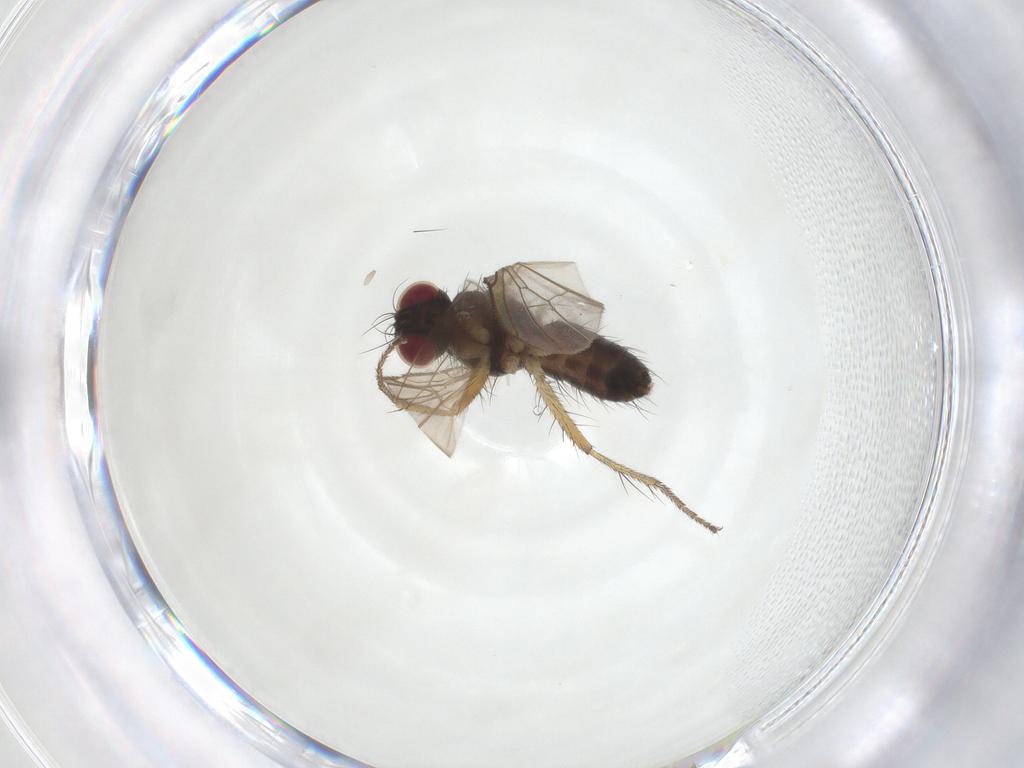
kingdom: Animalia
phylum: Arthropoda
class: Insecta
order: Diptera
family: Muscidae
